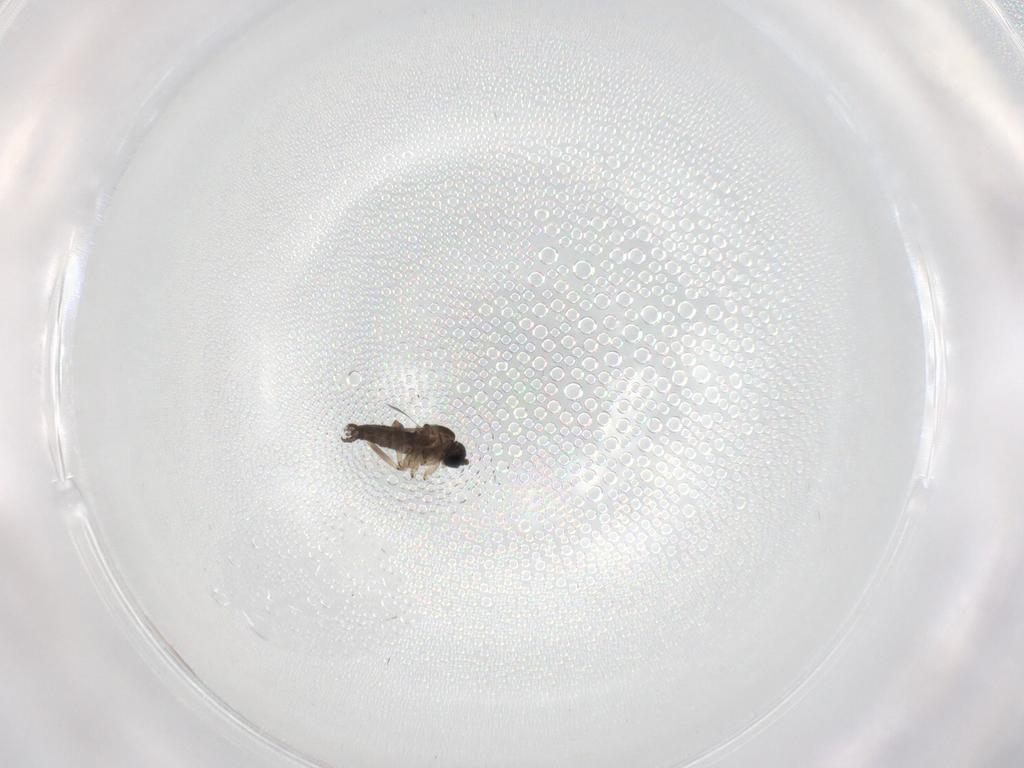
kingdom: Animalia
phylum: Arthropoda
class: Insecta
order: Diptera
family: Sciaridae
